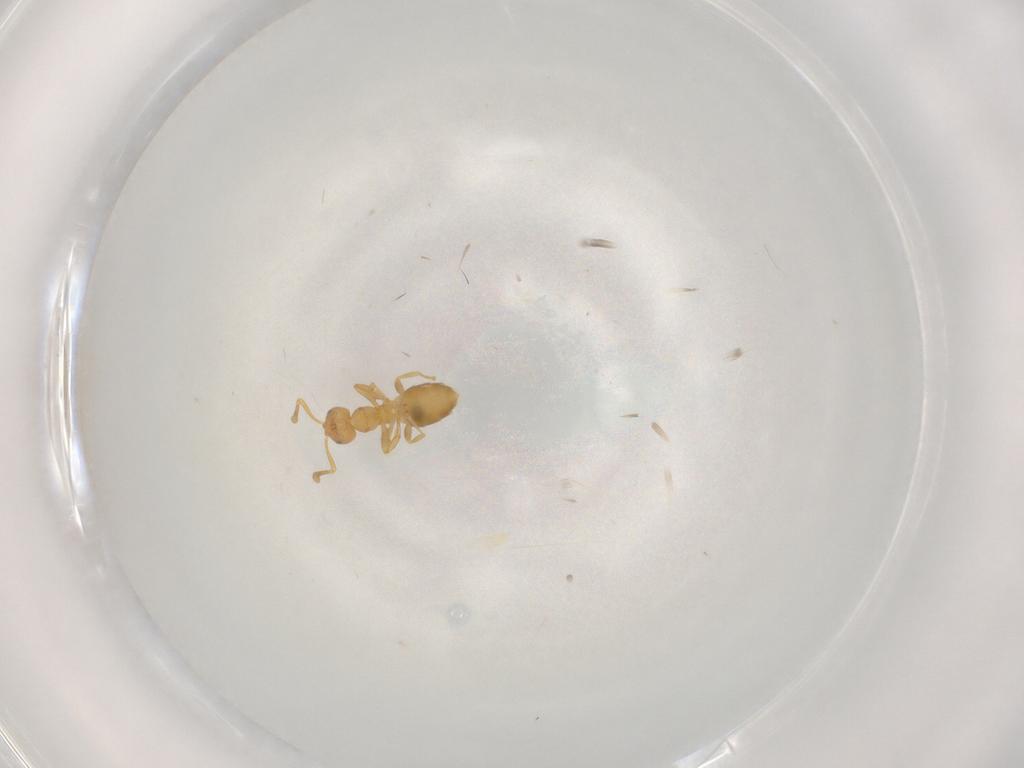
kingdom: Animalia
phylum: Arthropoda
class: Insecta
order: Hymenoptera
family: Formicidae
